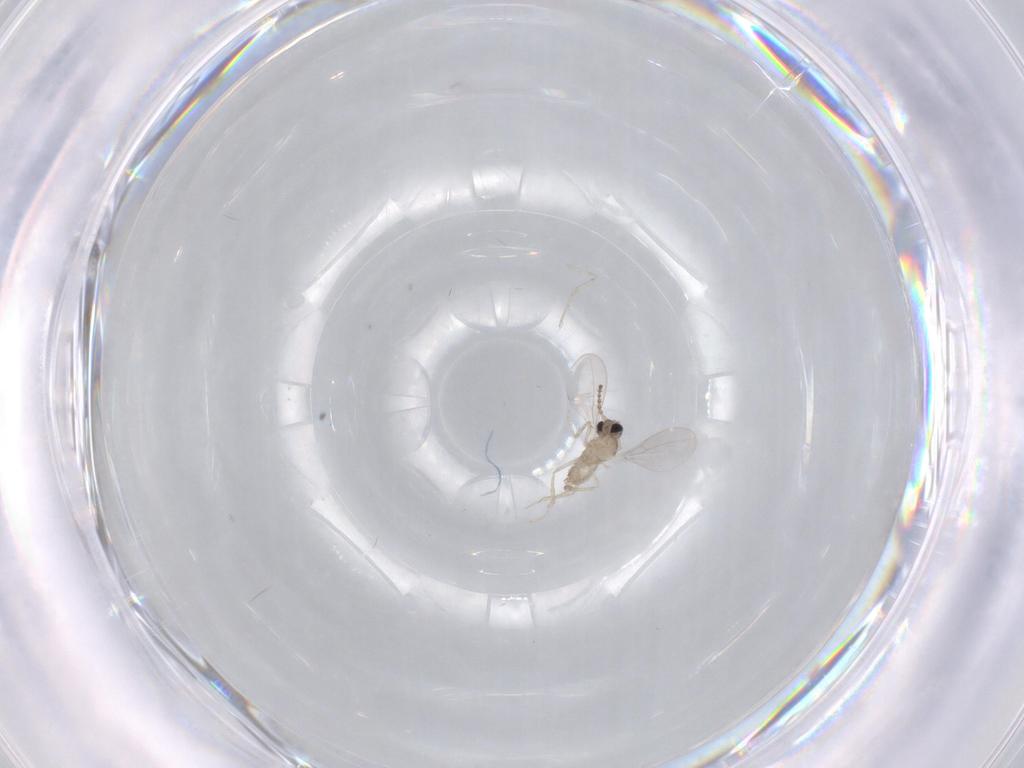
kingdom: Animalia
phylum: Arthropoda
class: Insecta
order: Diptera
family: Cecidomyiidae
